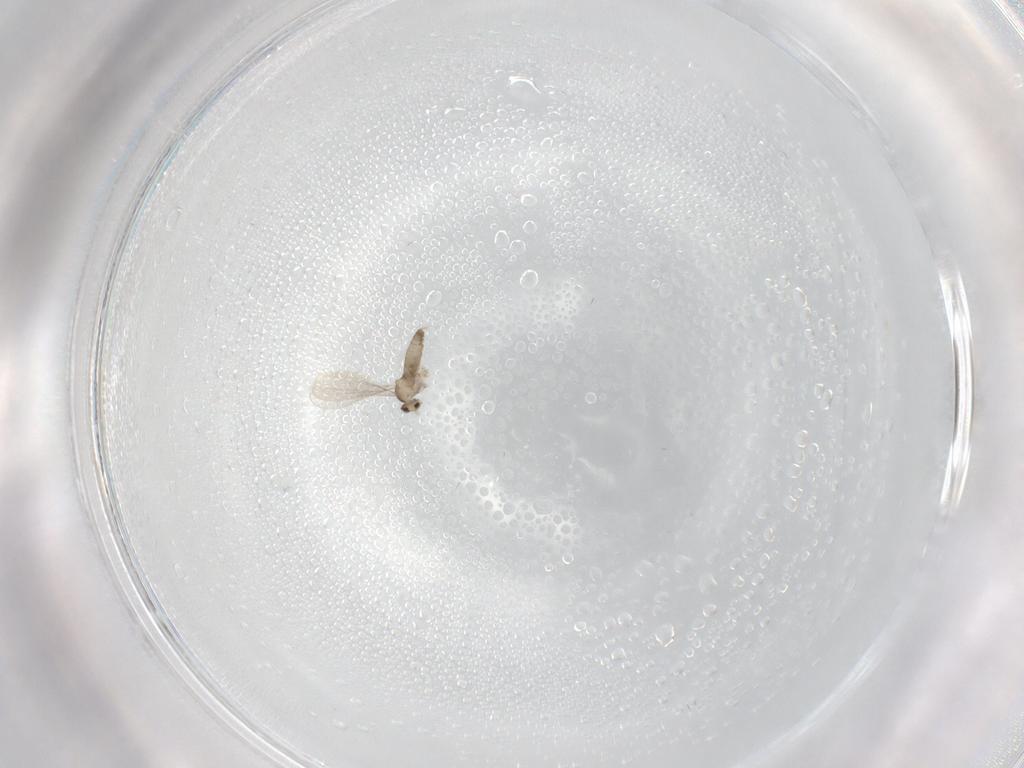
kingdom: Animalia
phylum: Arthropoda
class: Insecta
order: Diptera
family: Cecidomyiidae
